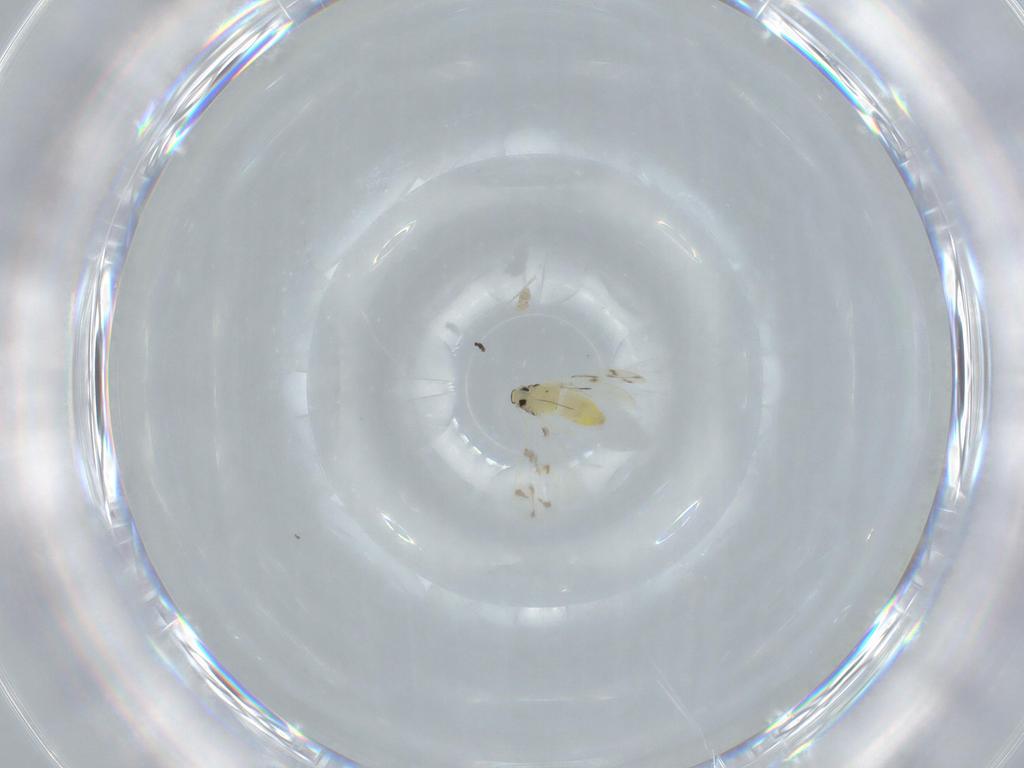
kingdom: Animalia
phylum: Arthropoda
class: Insecta
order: Hemiptera
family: Aleyrodidae
